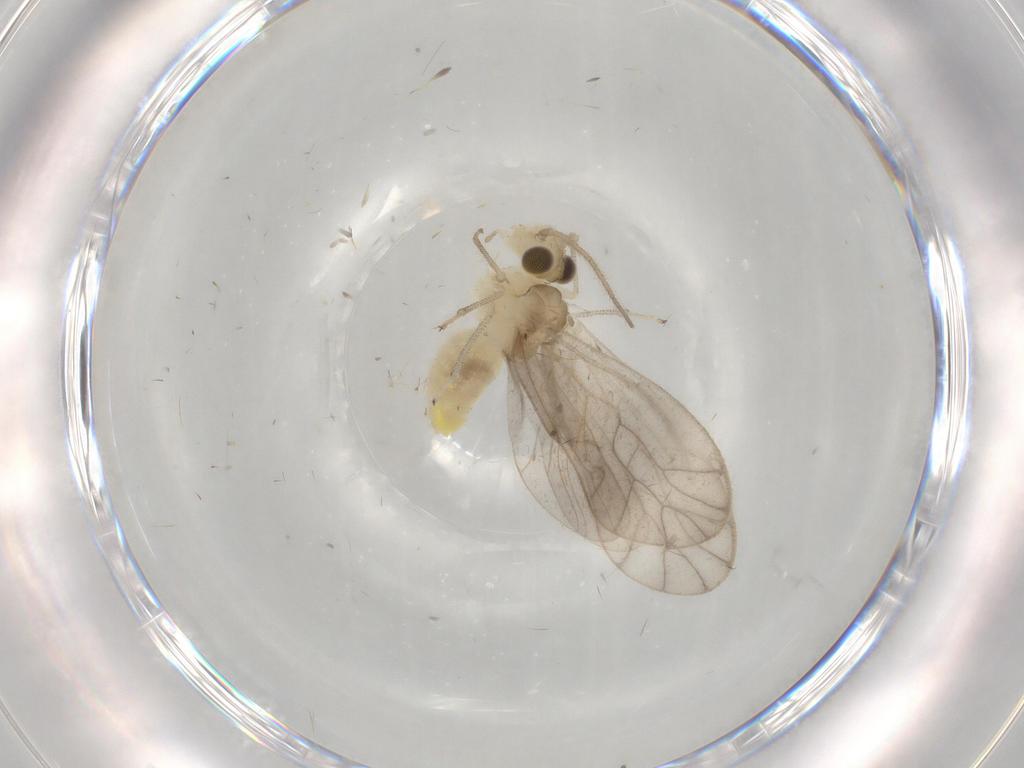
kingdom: Animalia
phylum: Arthropoda
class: Insecta
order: Psocodea
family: Caeciliusidae
